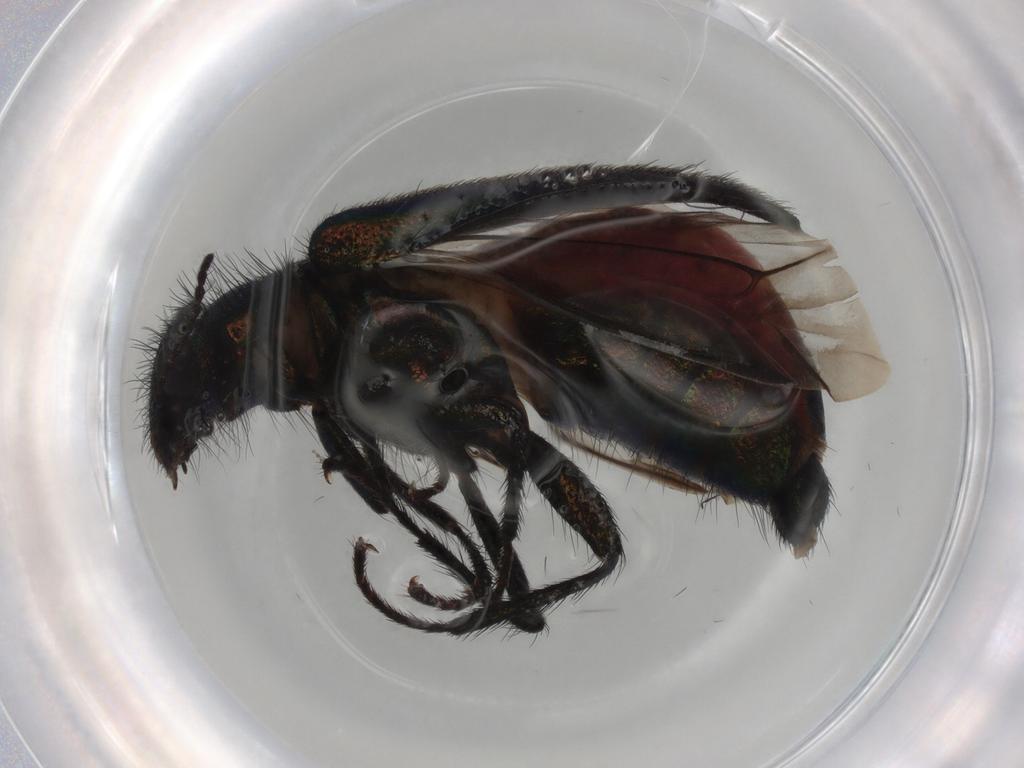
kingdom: Animalia
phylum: Arthropoda
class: Insecta
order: Coleoptera
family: Melyridae
